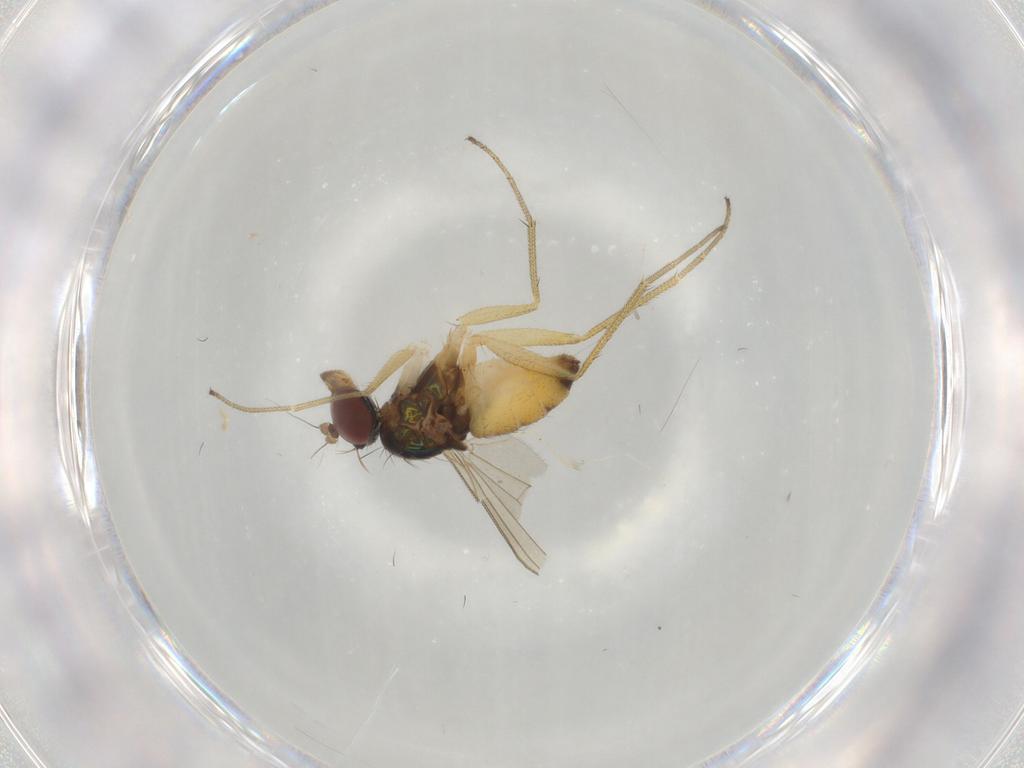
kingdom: Animalia
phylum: Arthropoda
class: Insecta
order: Diptera
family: Dolichopodidae
